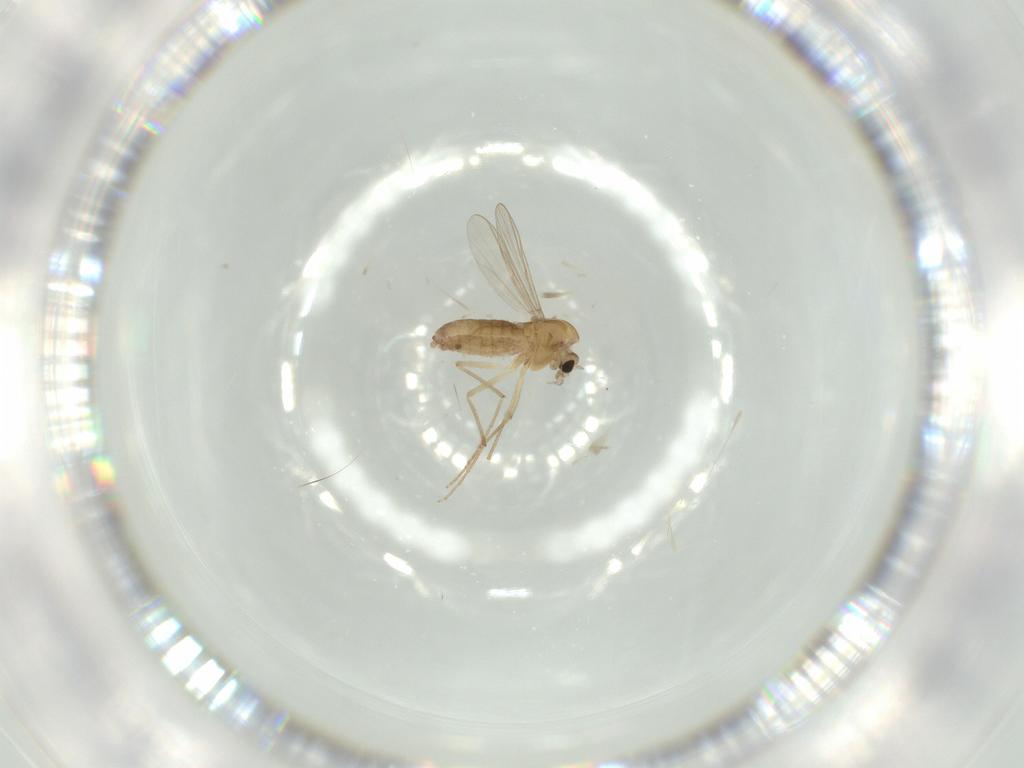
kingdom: Animalia
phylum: Arthropoda
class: Insecta
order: Diptera
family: Chironomidae
